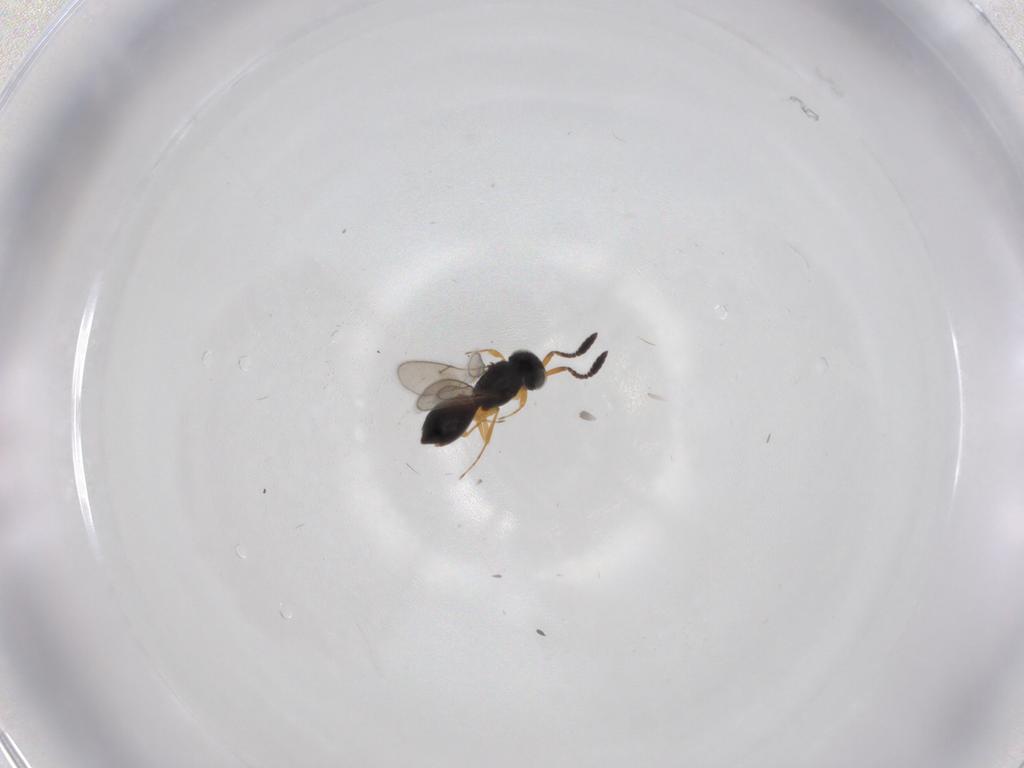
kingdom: Animalia
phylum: Arthropoda
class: Insecta
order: Hymenoptera
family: Scelionidae
